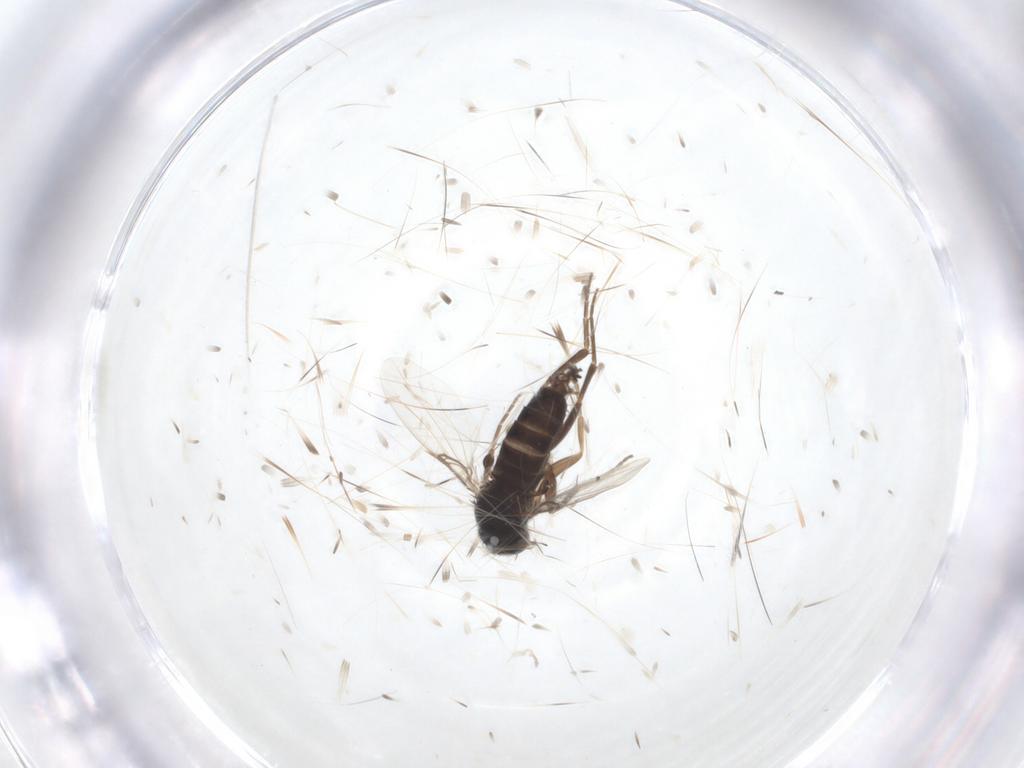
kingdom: Animalia
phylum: Arthropoda
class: Insecta
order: Diptera
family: Phoridae
